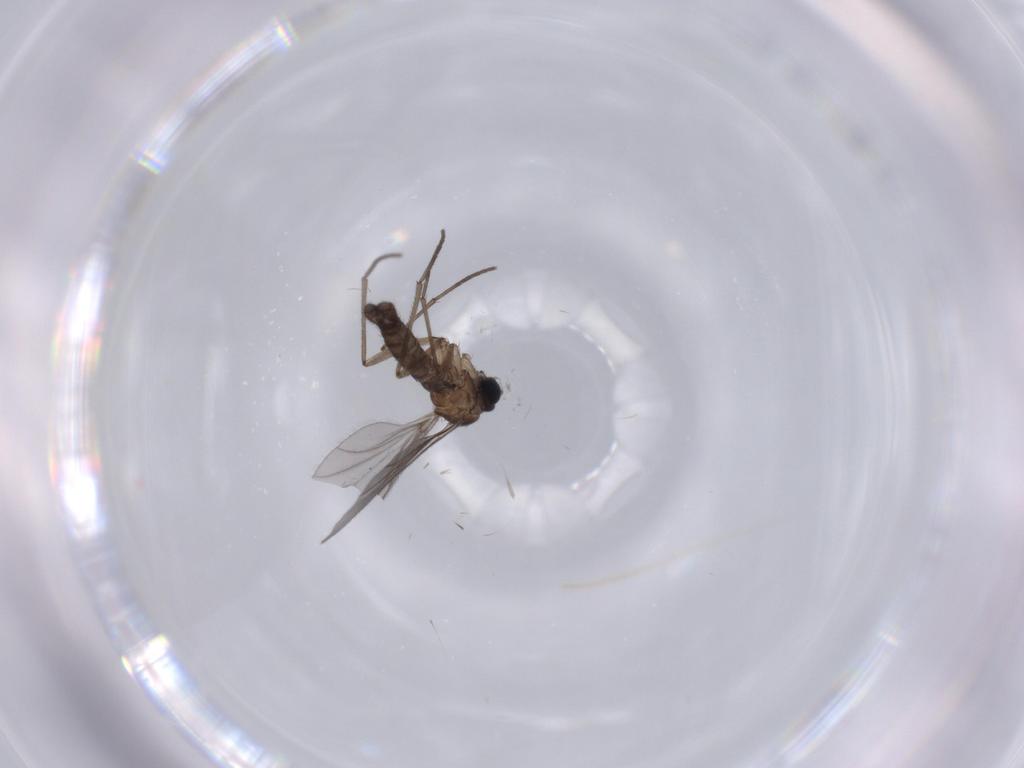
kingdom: Animalia
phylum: Arthropoda
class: Insecta
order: Diptera
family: Sciaridae
